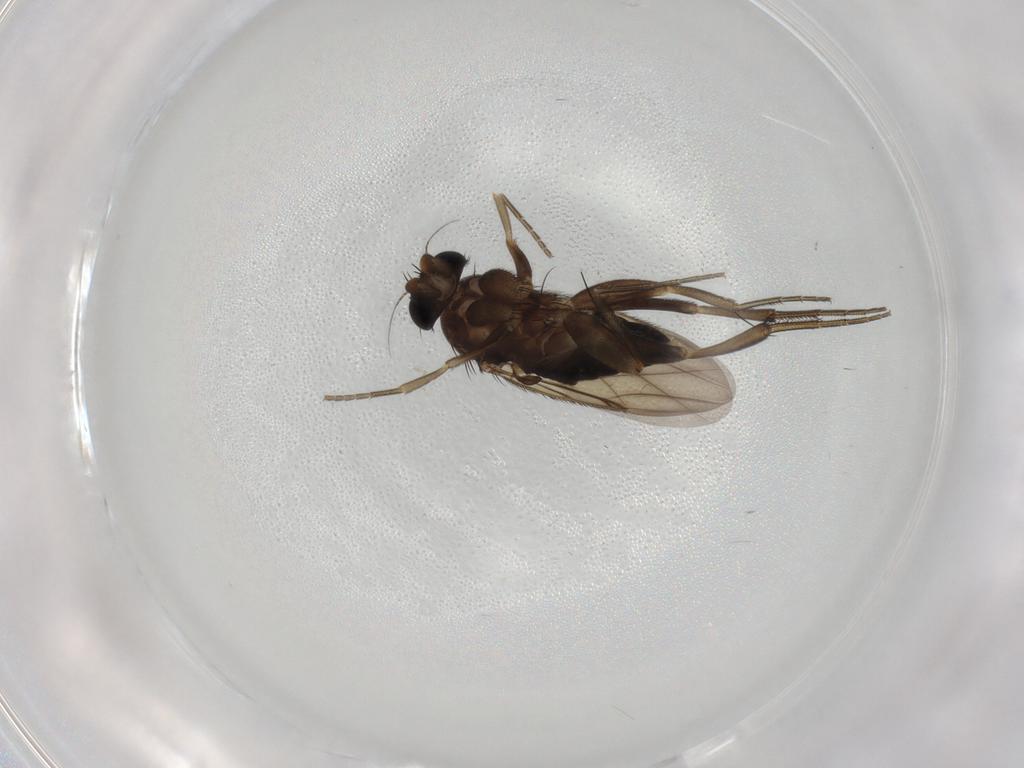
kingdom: Animalia
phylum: Arthropoda
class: Insecta
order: Diptera
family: Phoridae
